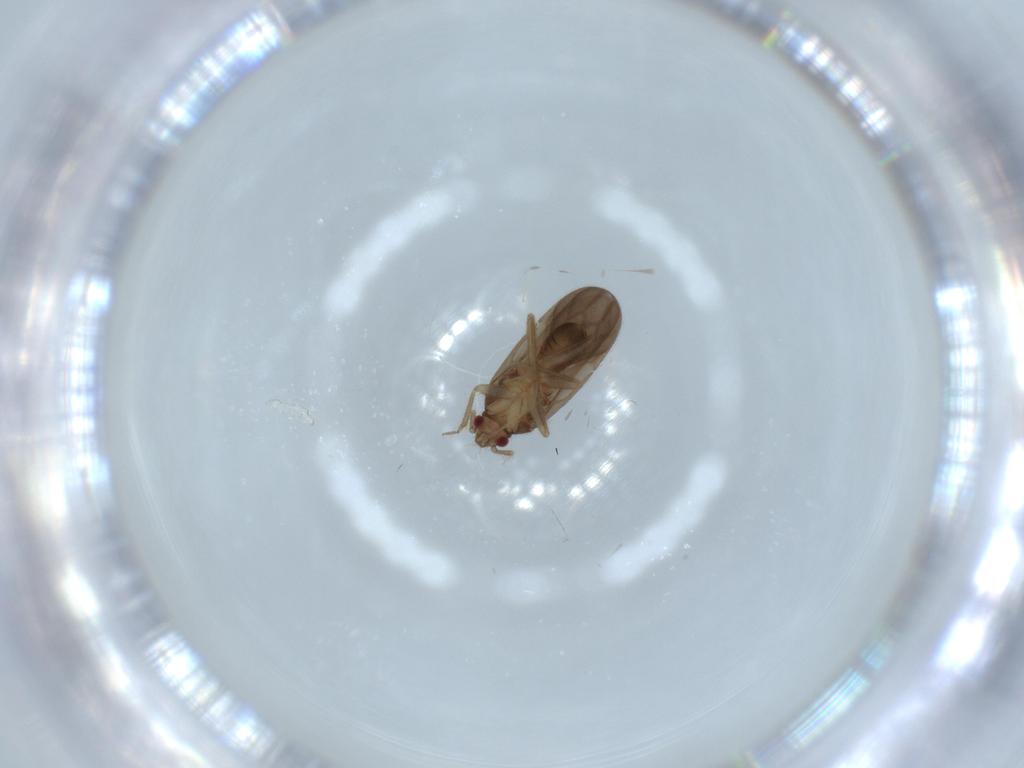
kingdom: Animalia
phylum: Arthropoda
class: Insecta
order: Hemiptera
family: Ceratocombidae
